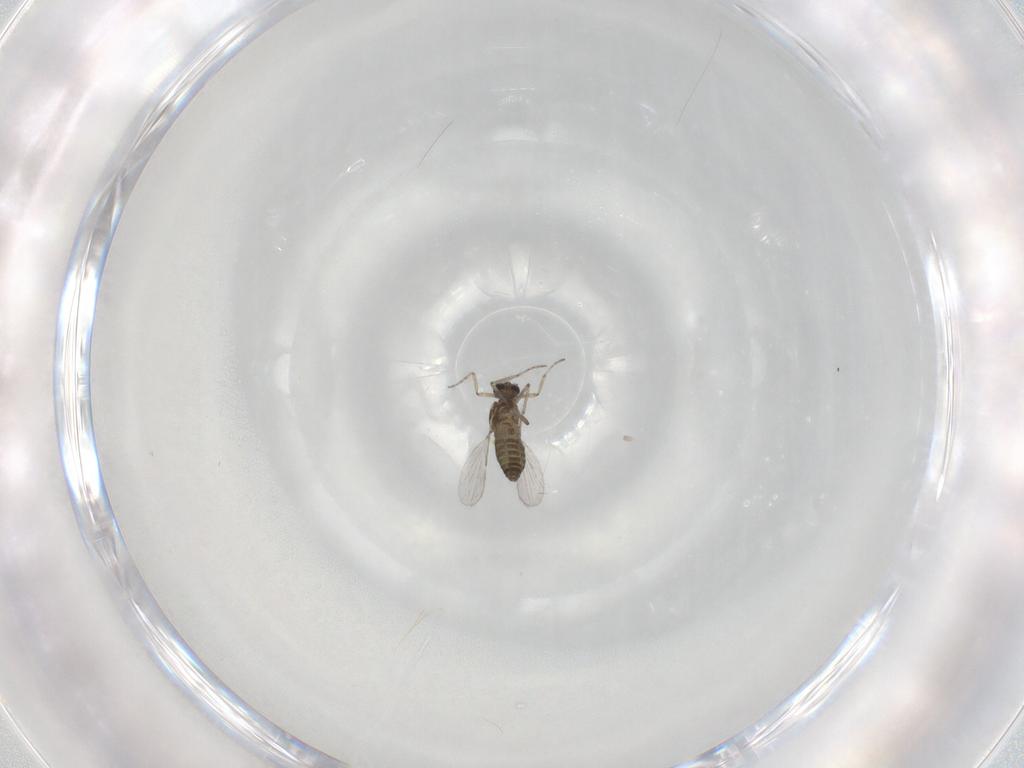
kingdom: Animalia
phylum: Arthropoda
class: Insecta
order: Diptera
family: Ceratopogonidae
